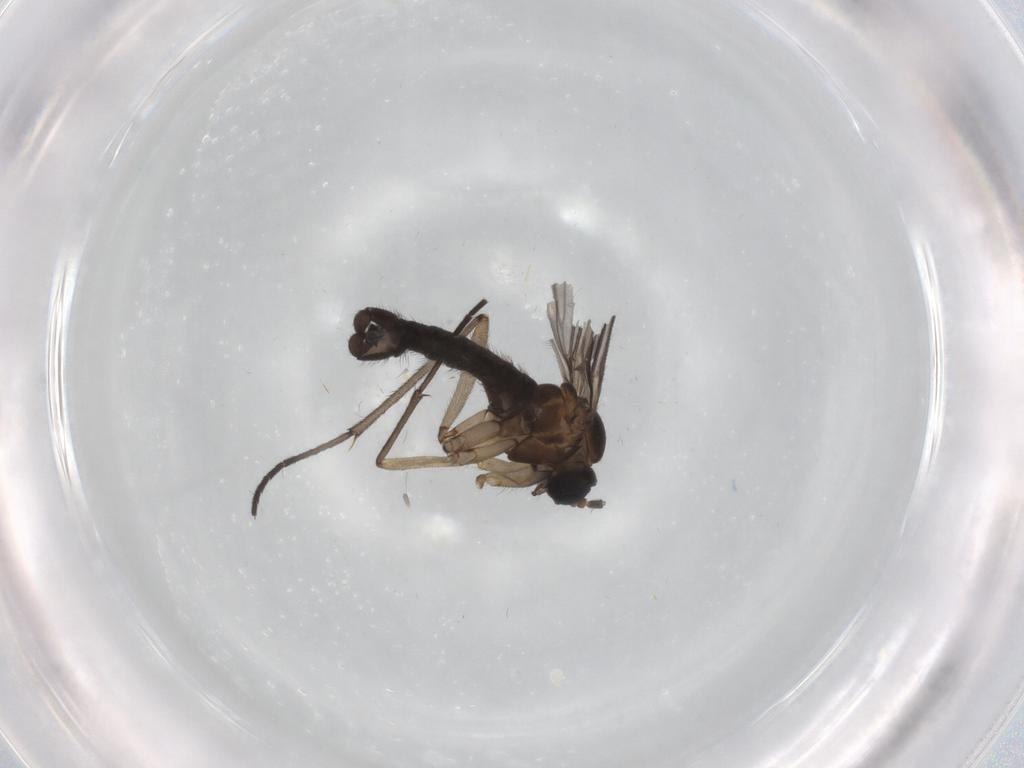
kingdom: Animalia
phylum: Arthropoda
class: Insecta
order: Diptera
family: Sciaridae
